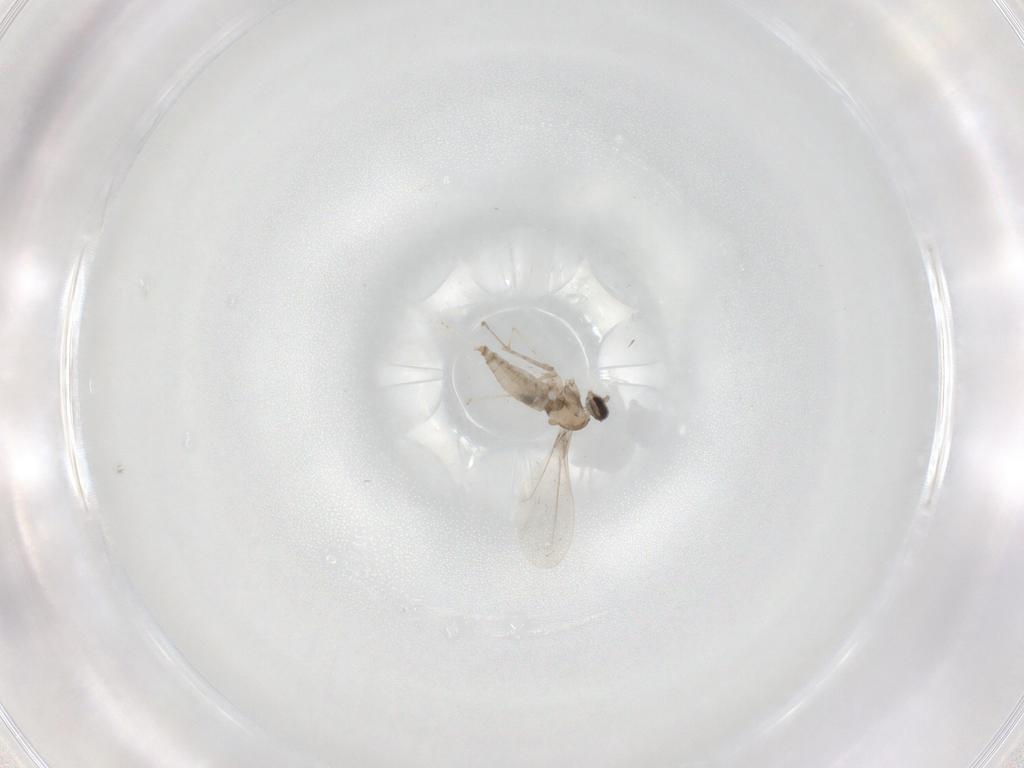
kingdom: Animalia
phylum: Arthropoda
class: Insecta
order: Diptera
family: Cecidomyiidae
